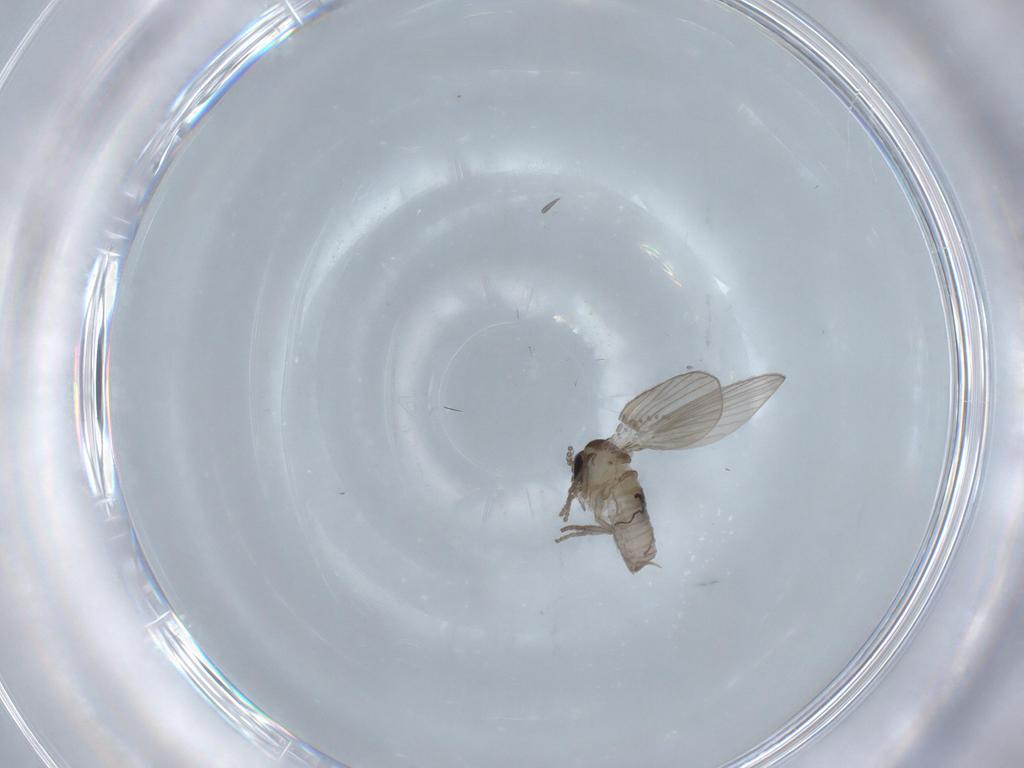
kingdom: Animalia
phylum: Arthropoda
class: Insecta
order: Diptera
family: Psychodidae
